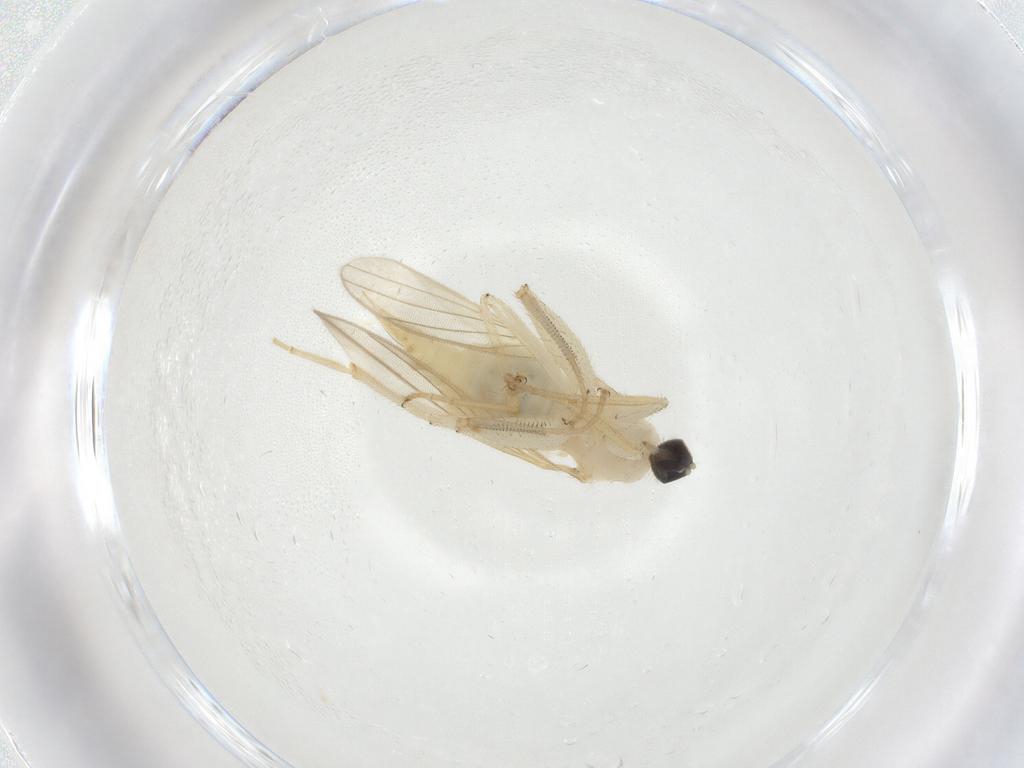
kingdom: Animalia
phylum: Arthropoda
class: Insecta
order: Diptera
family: Hybotidae
